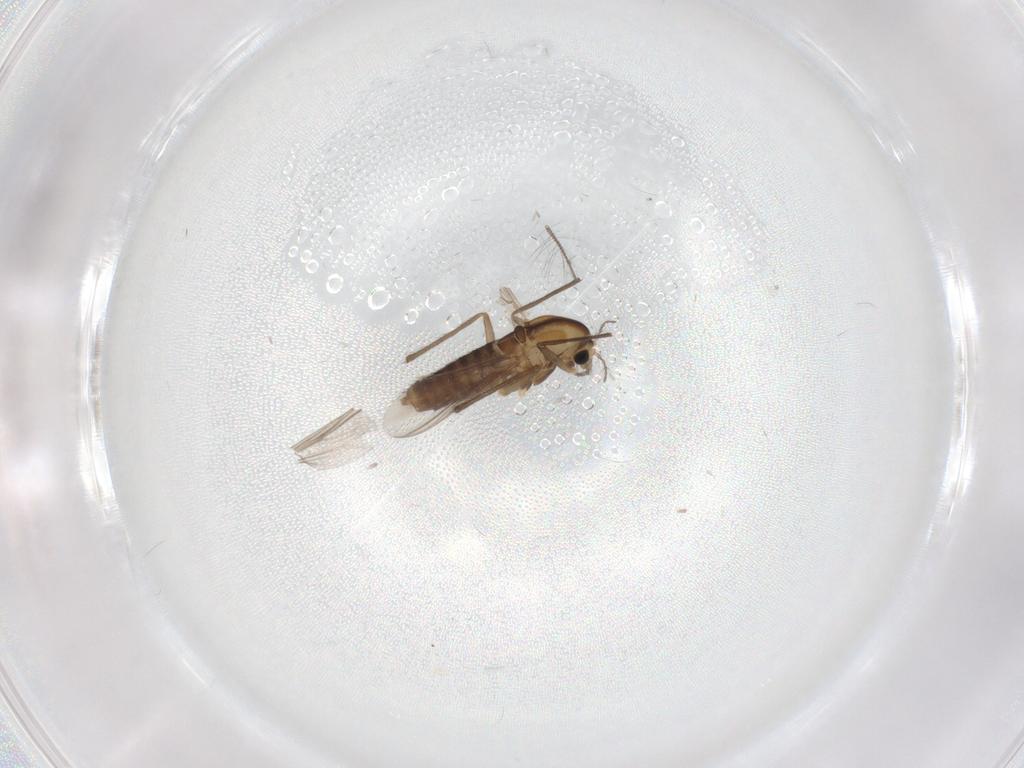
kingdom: Animalia
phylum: Arthropoda
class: Insecta
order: Diptera
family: Chironomidae
